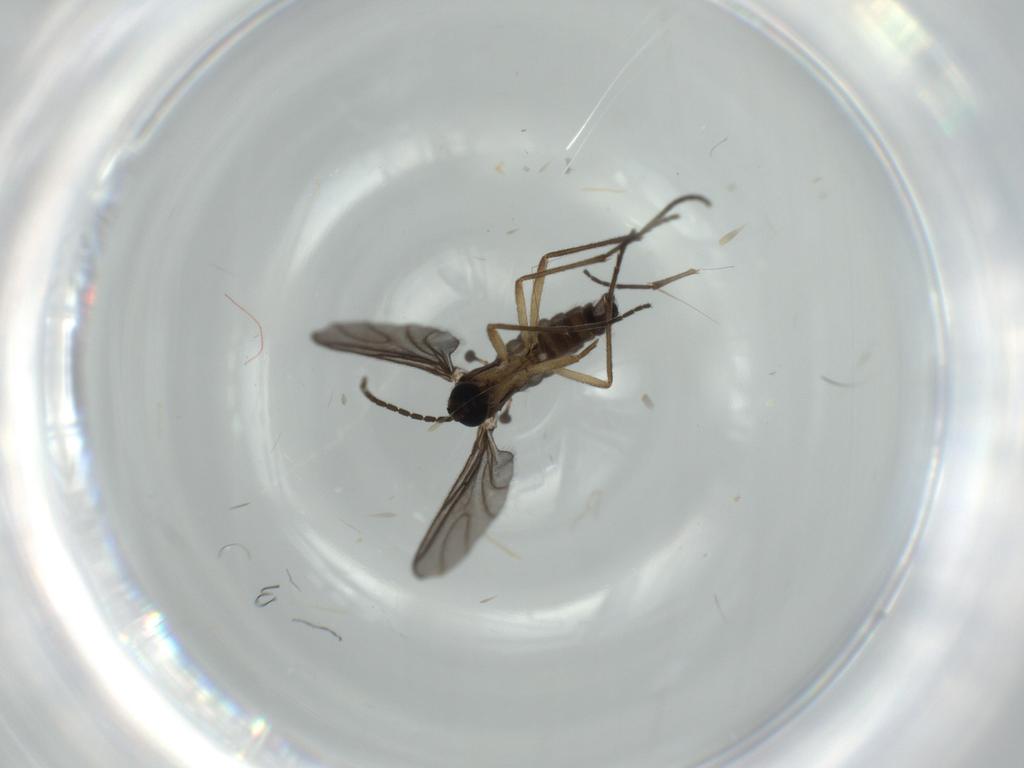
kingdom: Animalia
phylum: Arthropoda
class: Insecta
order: Diptera
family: Sciaridae
